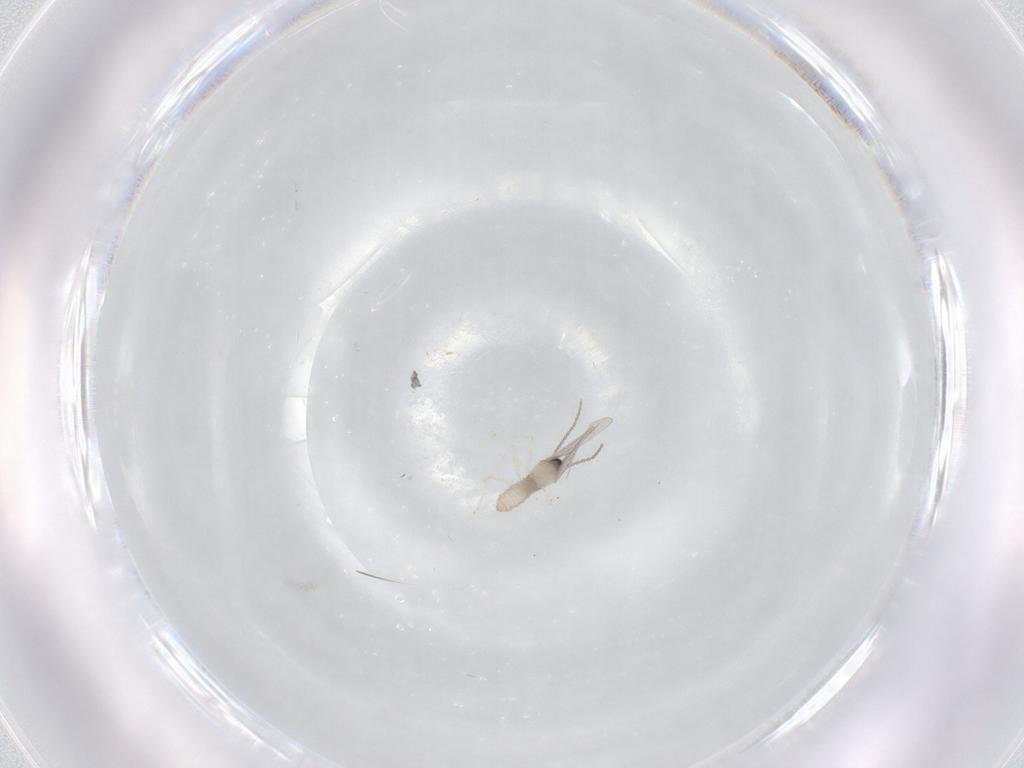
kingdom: Animalia
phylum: Arthropoda
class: Insecta
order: Diptera
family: Cecidomyiidae
